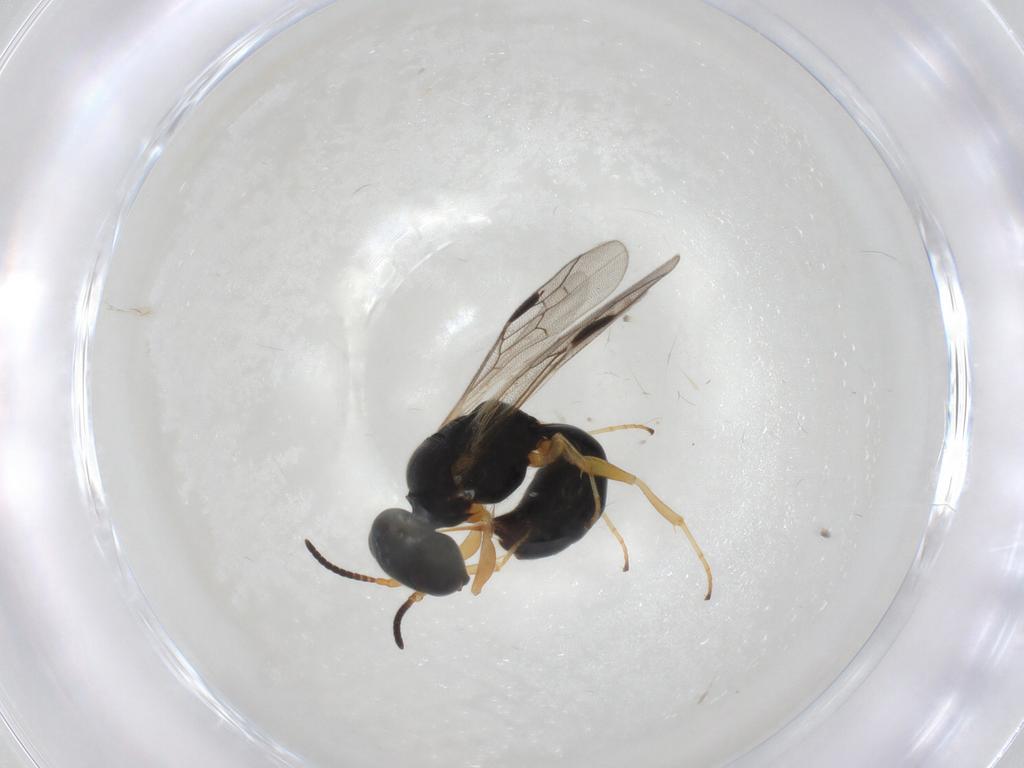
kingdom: Animalia
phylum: Arthropoda
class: Insecta
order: Hymenoptera
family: Pemphredonidae
